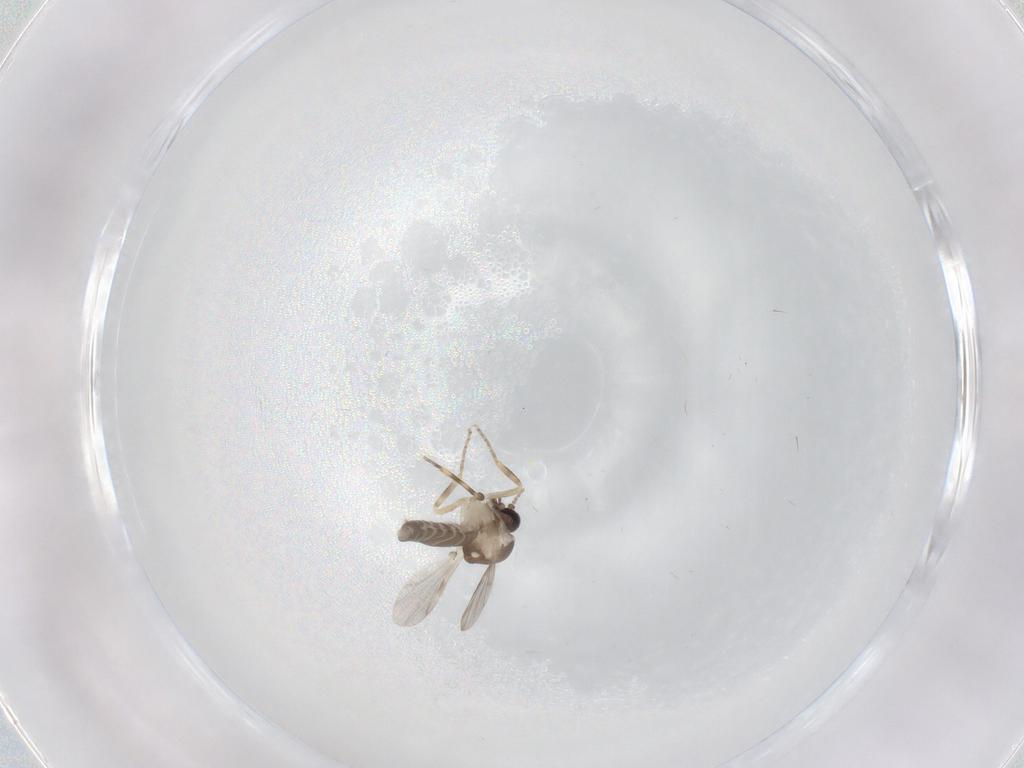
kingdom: Animalia
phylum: Arthropoda
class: Insecta
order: Diptera
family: Ceratopogonidae
